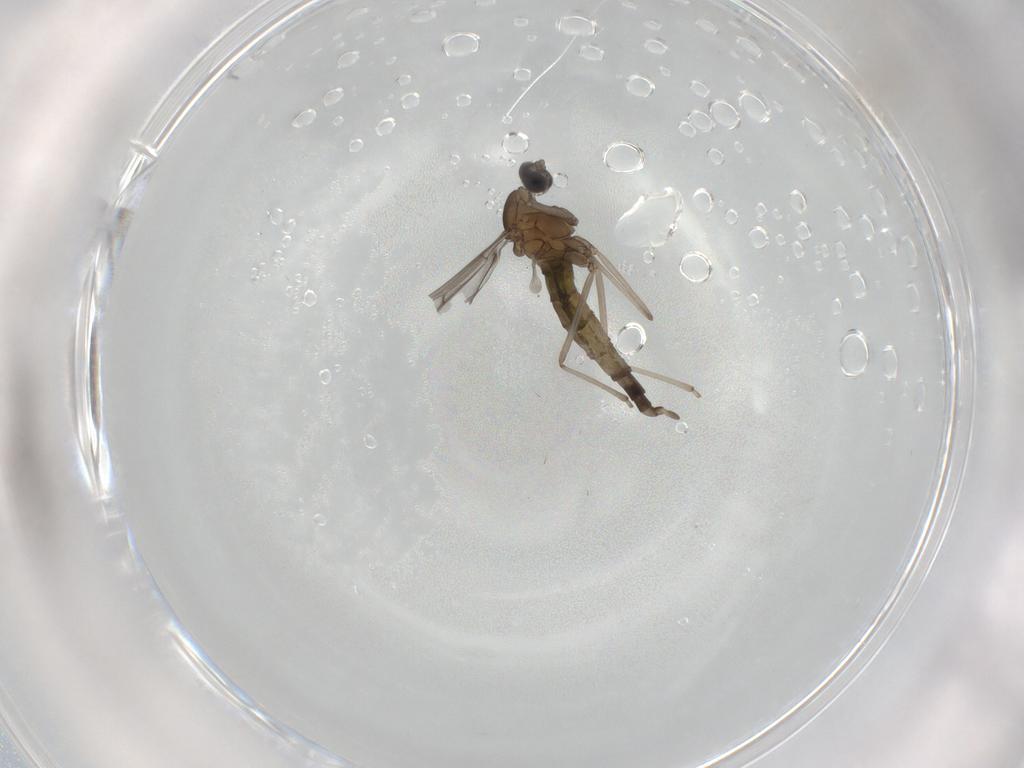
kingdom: Animalia
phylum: Arthropoda
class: Insecta
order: Diptera
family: Cecidomyiidae
